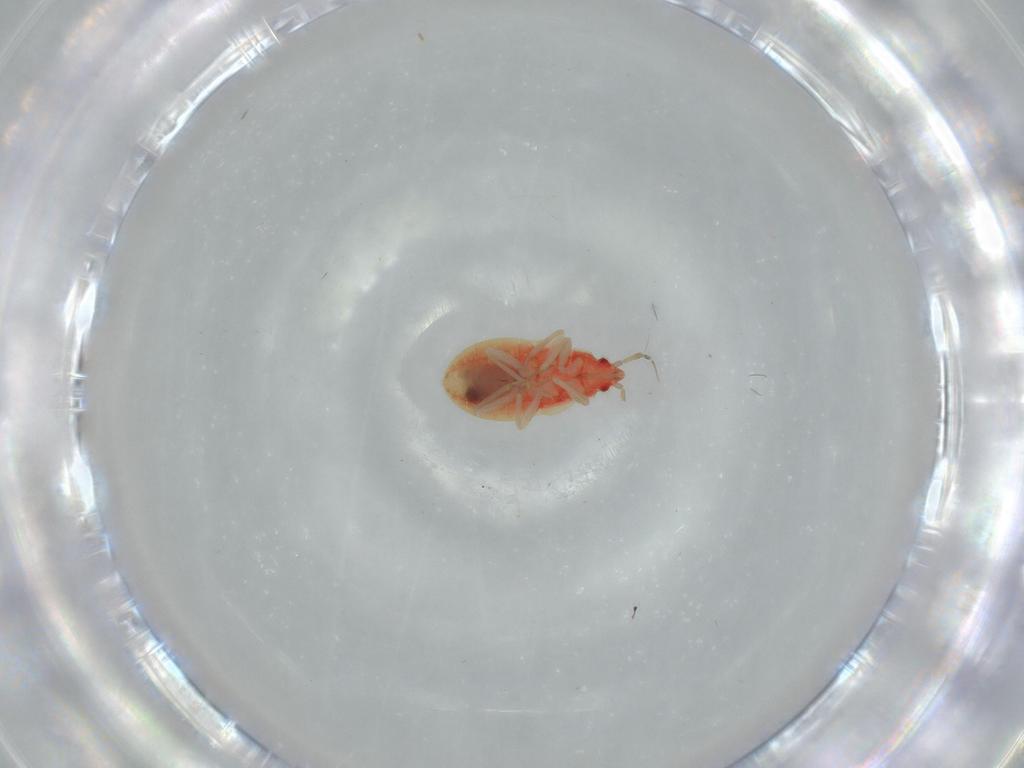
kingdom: Animalia
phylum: Arthropoda
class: Insecta
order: Hemiptera
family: Anthocoridae
